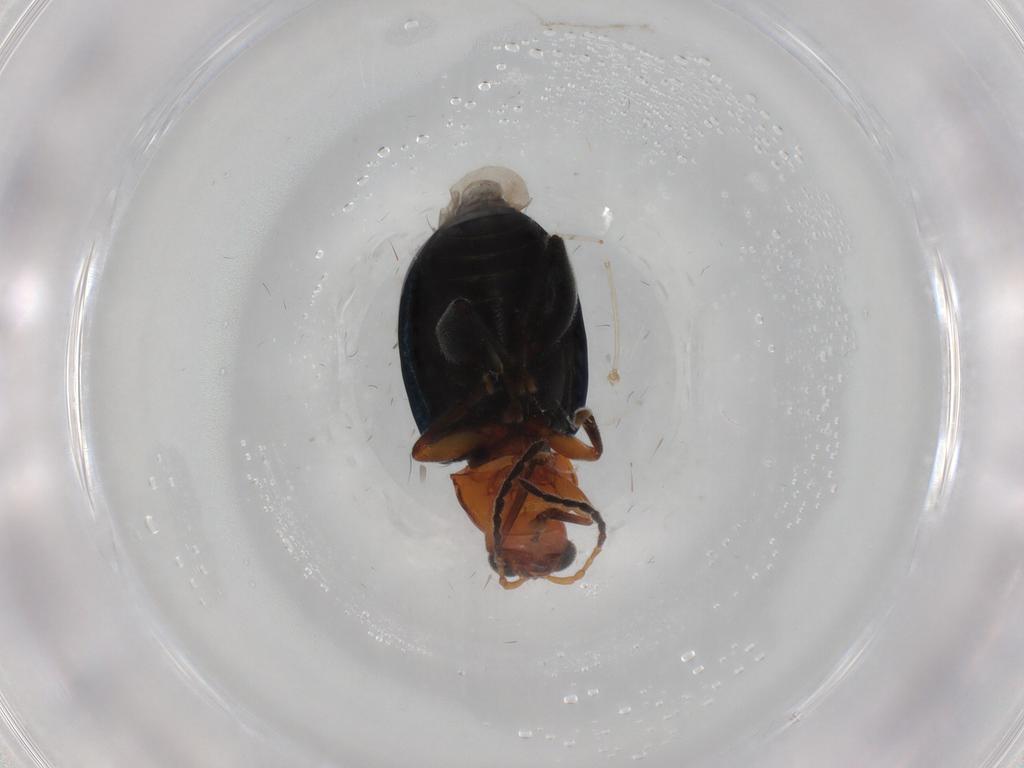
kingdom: Animalia
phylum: Arthropoda
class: Insecta
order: Coleoptera
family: Chrysomelidae
